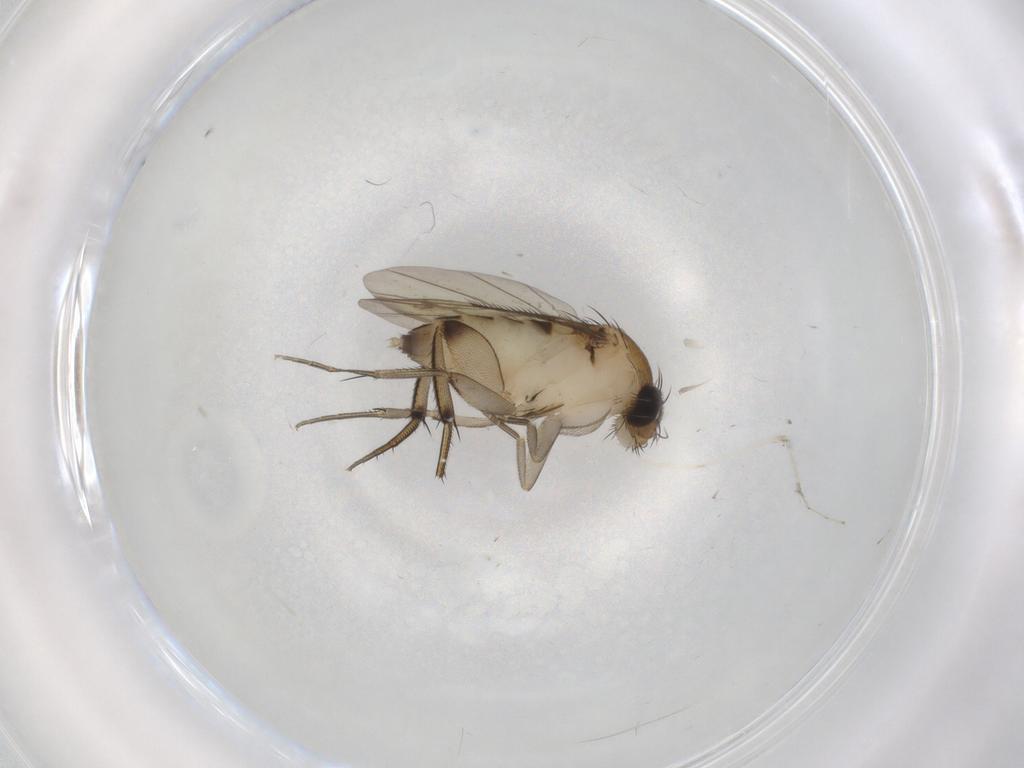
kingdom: Animalia
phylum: Arthropoda
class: Insecta
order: Diptera
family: Phoridae
